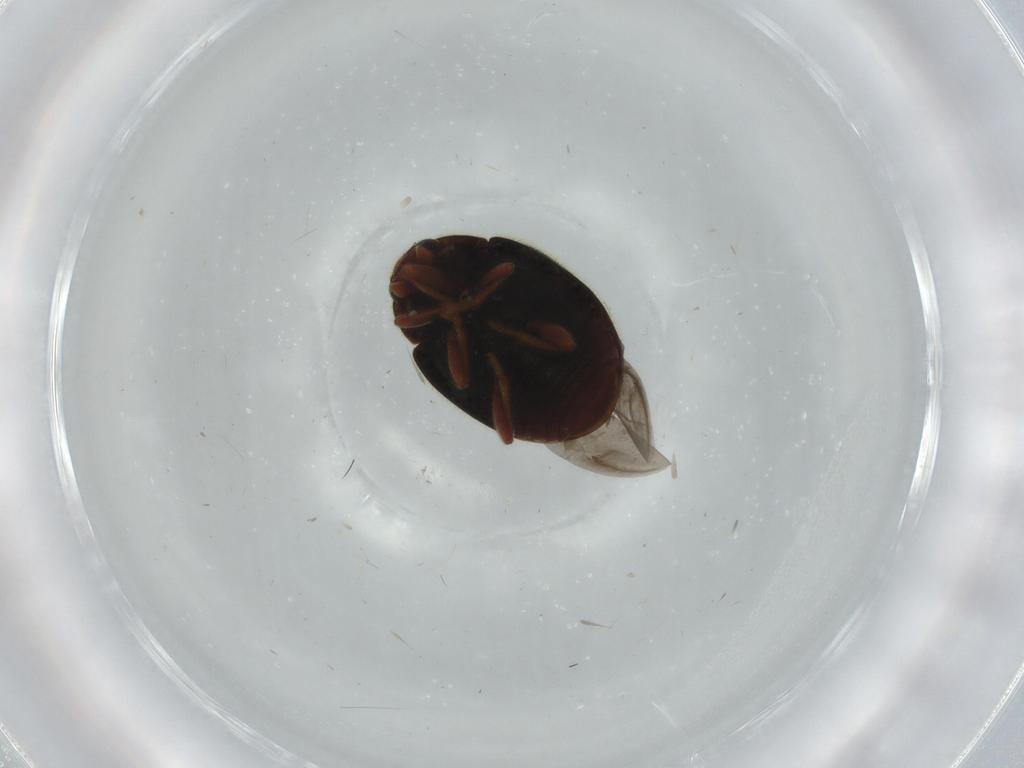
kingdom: Animalia
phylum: Arthropoda
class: Insecta
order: Coleoptera
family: Coccinellidae
